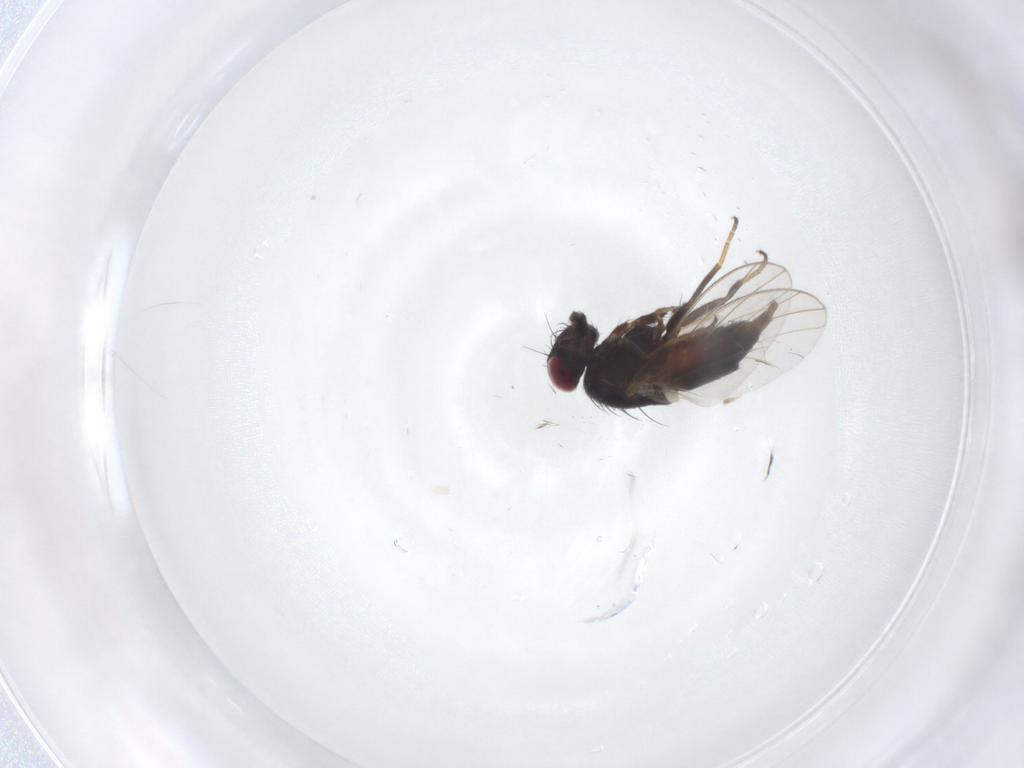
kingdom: Animalia
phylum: Arthropoda
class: Insecta
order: Diptera
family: Carnidae
